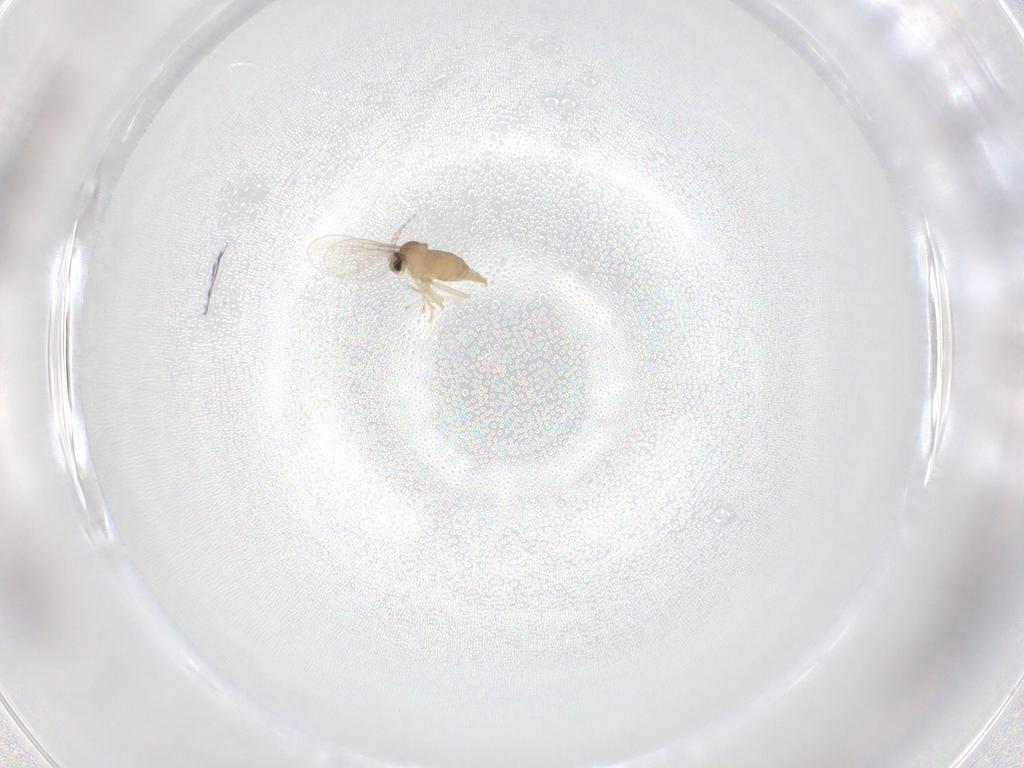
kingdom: Animalia
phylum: Arthropoda
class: Insecta
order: Diptera
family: Cecidomyiidae
